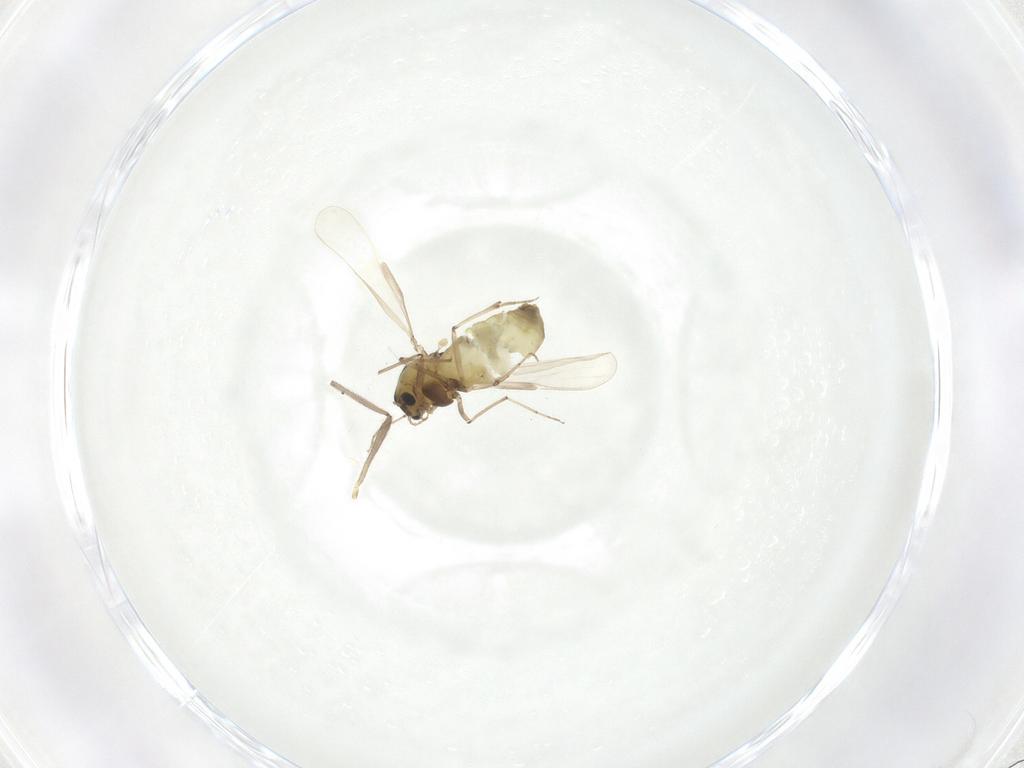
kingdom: Animalia
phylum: Arthropoda
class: Insecta
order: Diptera
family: Chironomidae
